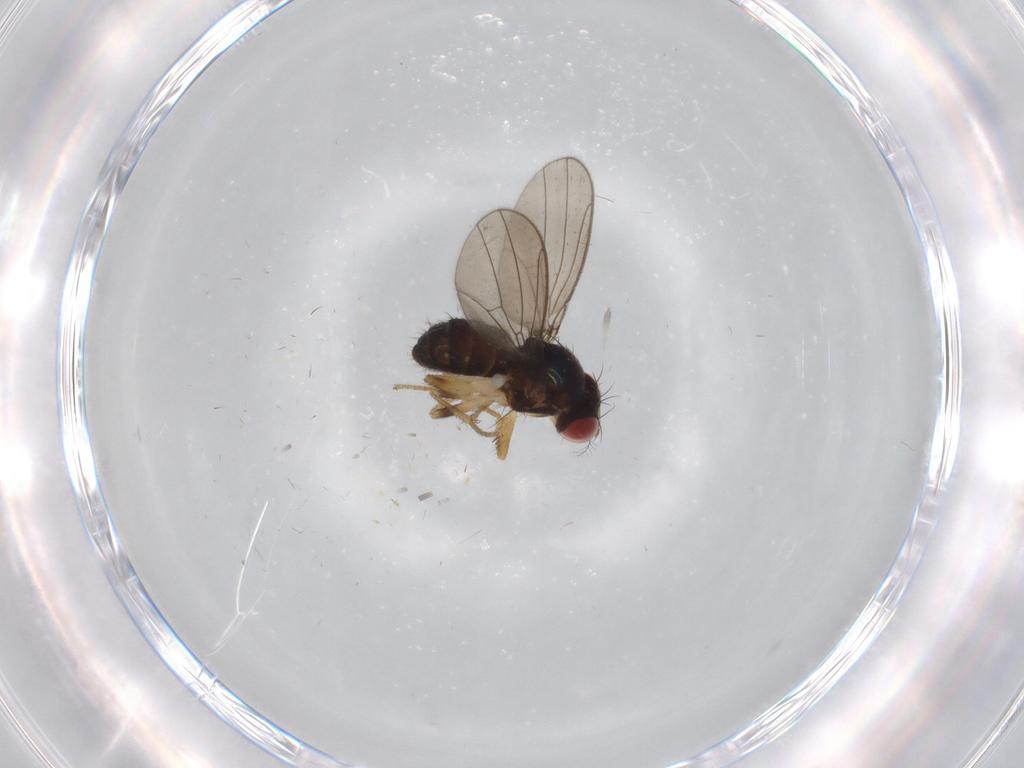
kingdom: Animalia
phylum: Arthropoda
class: Insecta
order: Diptera
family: Drosophilidae
